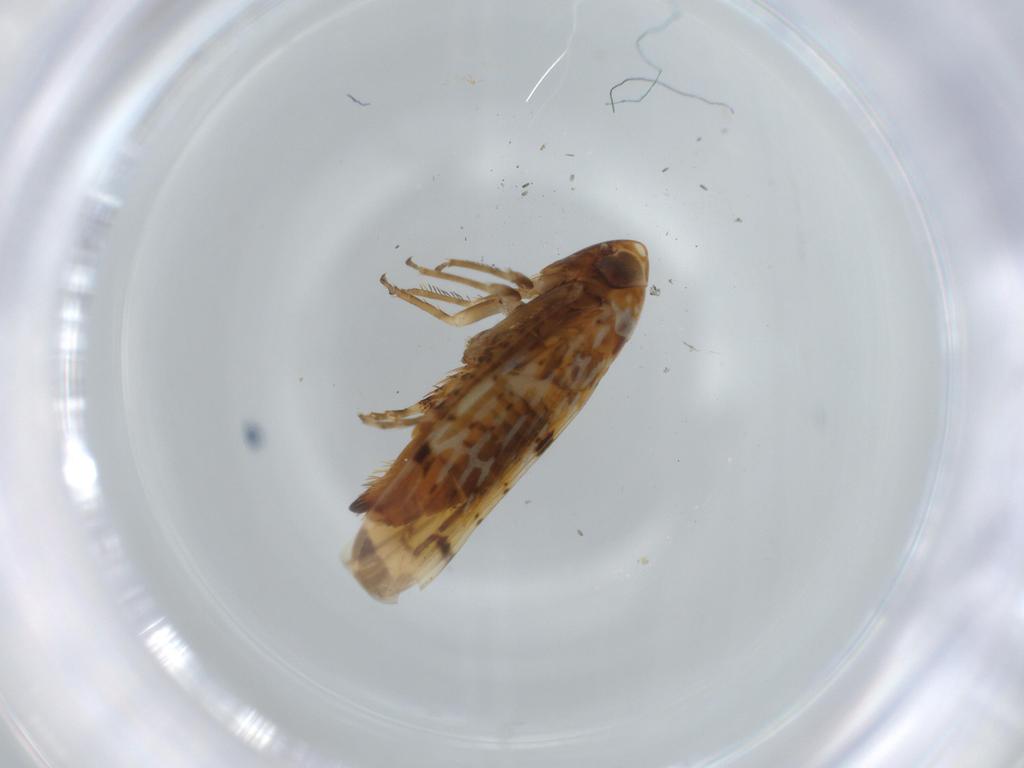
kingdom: Animalia
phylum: Arthropoda
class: Insecta
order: Hemiptera
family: Cicadellidae
